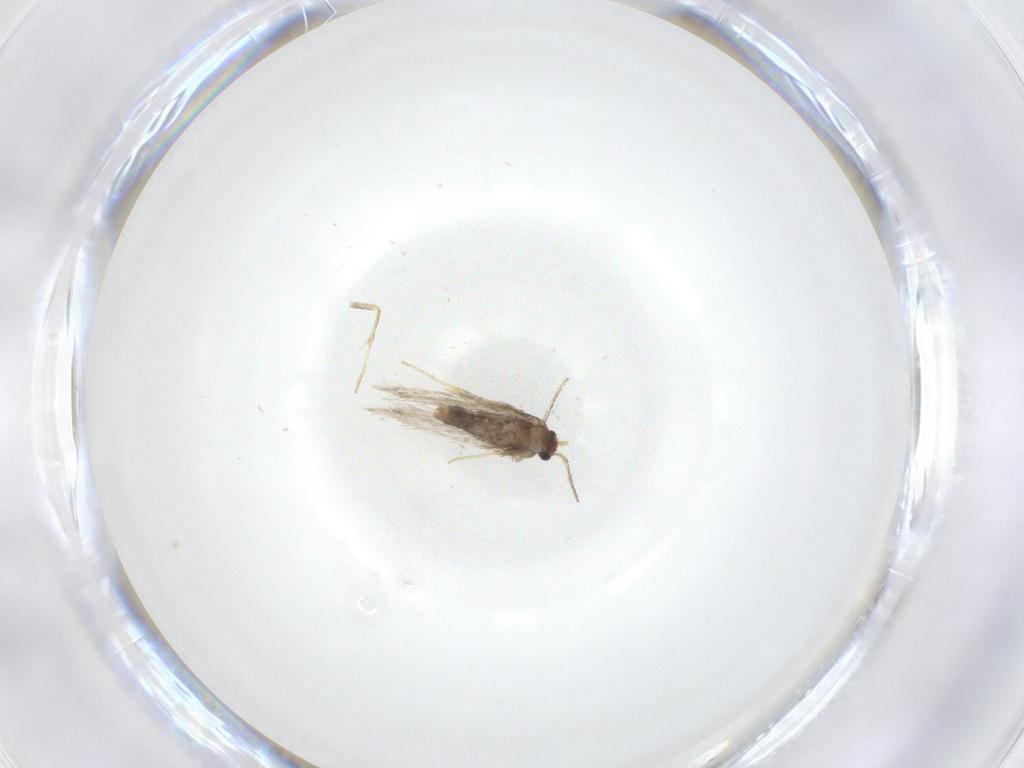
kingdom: Animalia
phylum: Arthropoda
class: Insecta
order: Lepidoptera
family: Nepticulidae
